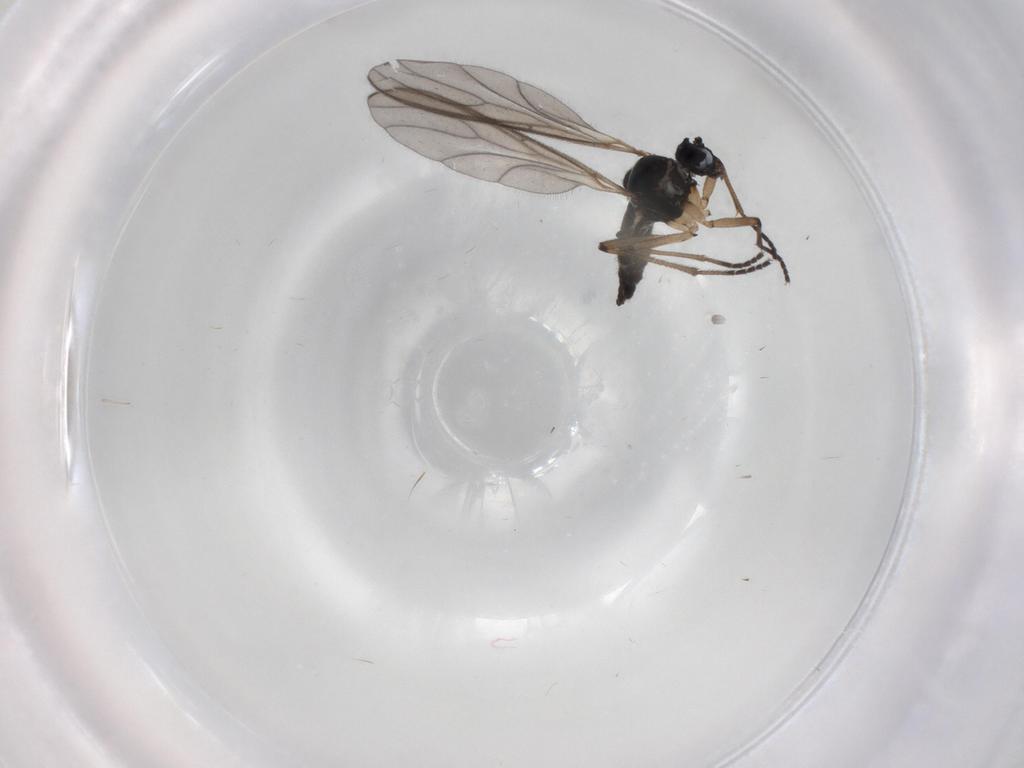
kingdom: Animalia
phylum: Arthropoda
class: Insecta
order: Diptera
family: Sciaridae
